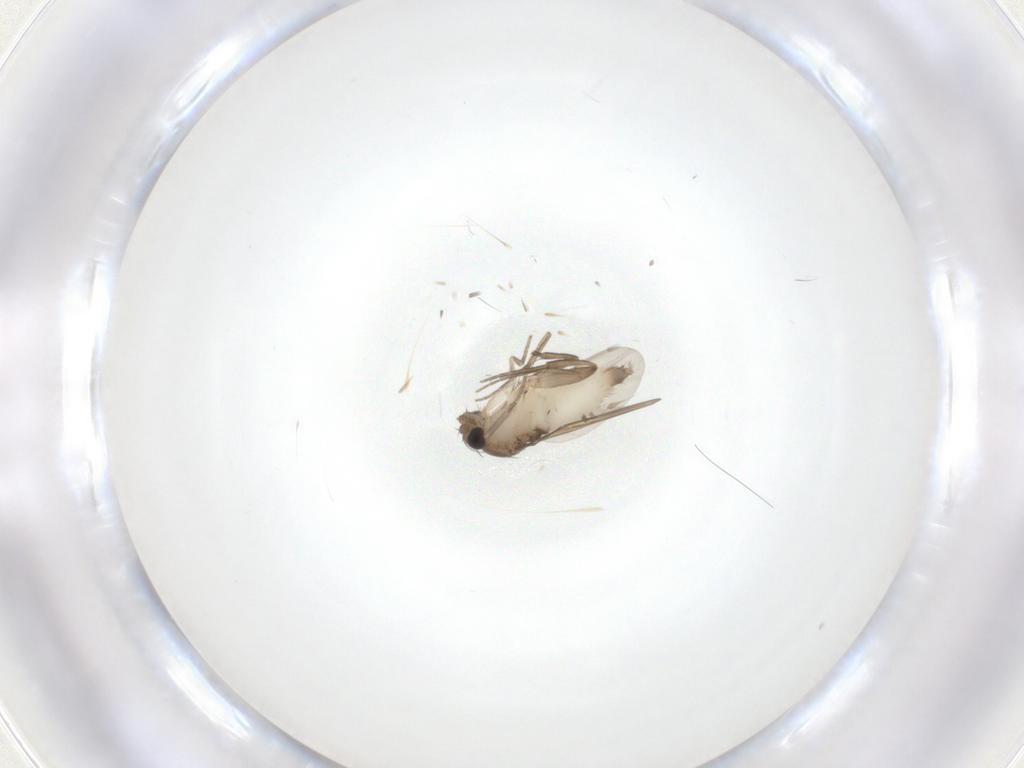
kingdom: Animalia
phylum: Arthropoda
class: Insecta
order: Diptera
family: Phoridae
